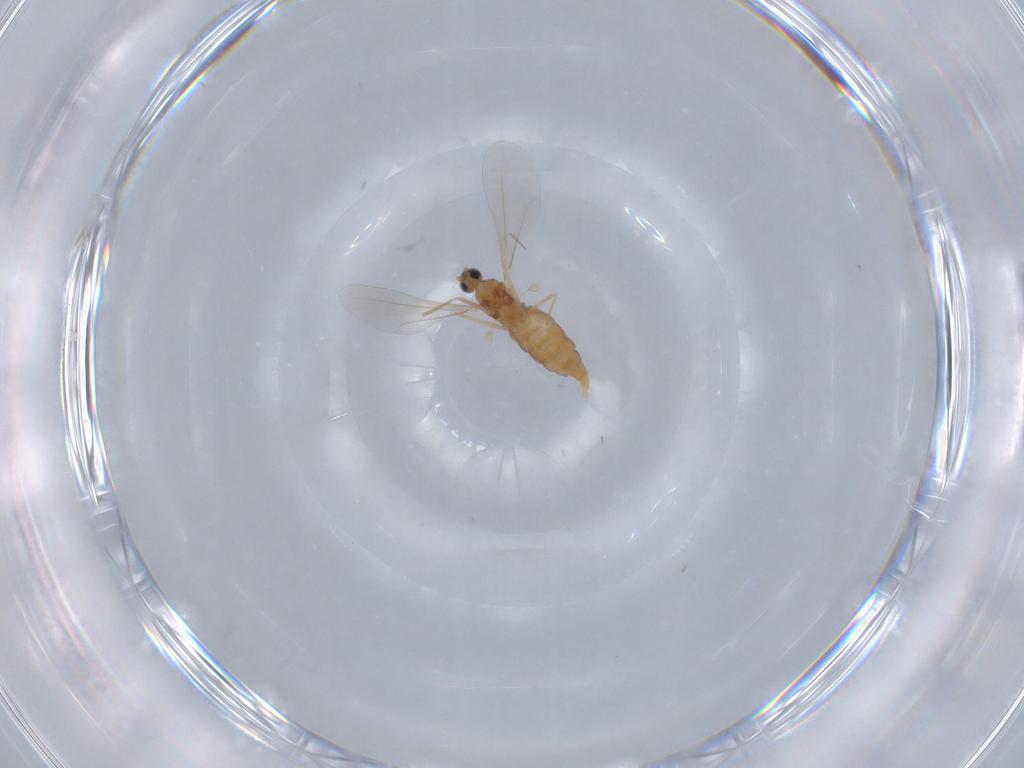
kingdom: Animalia
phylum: Arthropoda
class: Insecta
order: Diptera
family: Cecidomyiidae
